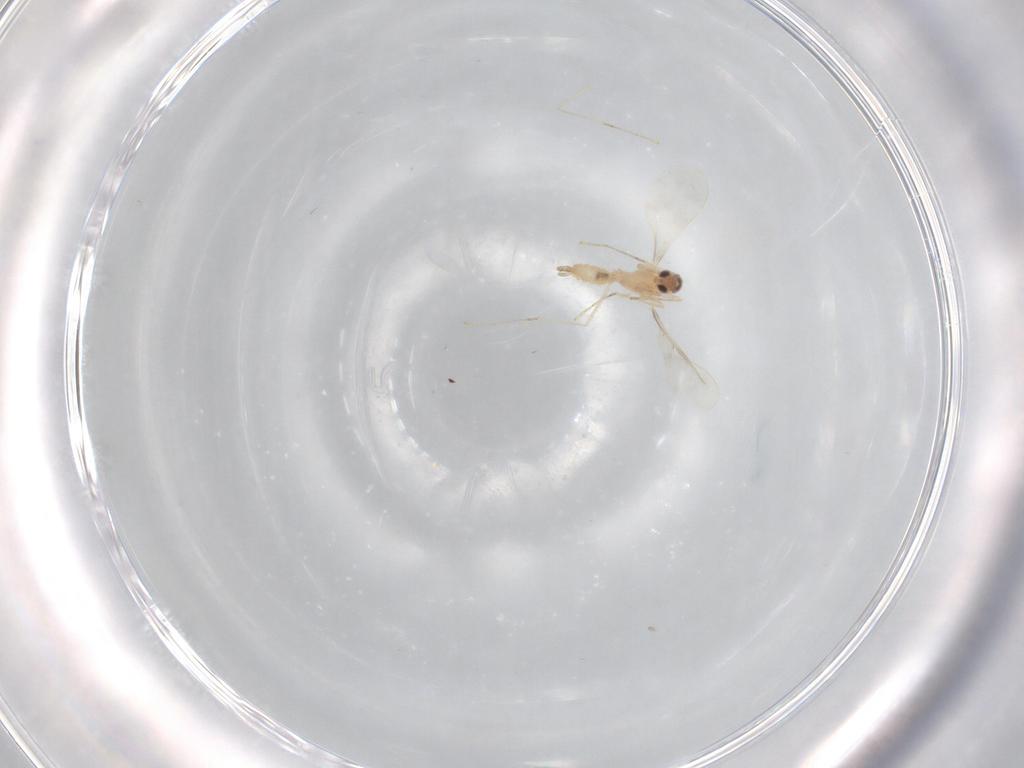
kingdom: Animalia
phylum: Arthropoda
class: Insecta
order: Diptera
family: Cecidomyiidae
